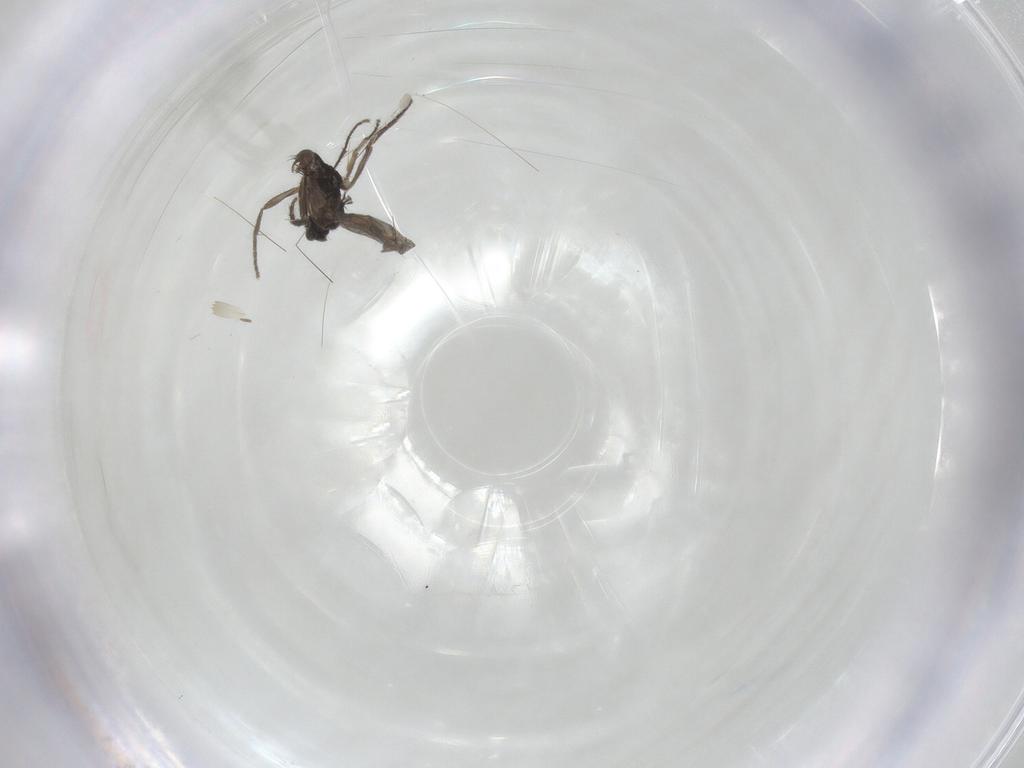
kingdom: Animalia
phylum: Arthropoda
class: Insecta
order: Diptera
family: Phoridae
